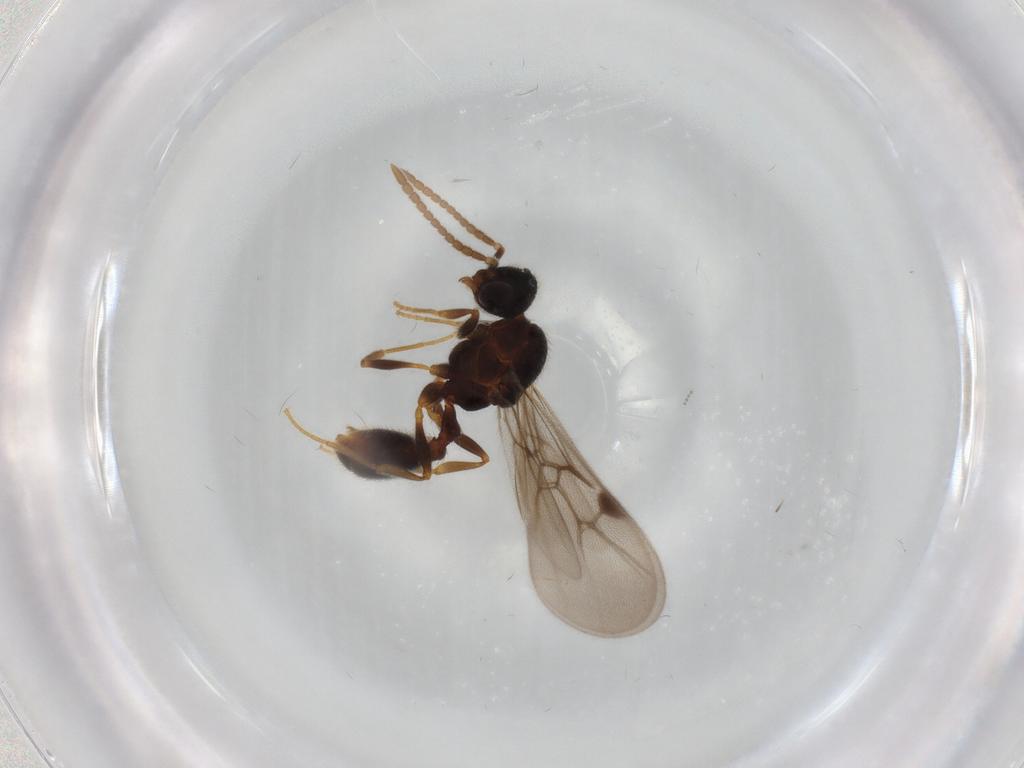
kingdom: Animalia
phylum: Arthropoda
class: Insecta
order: Hymenoptera
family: Formicidae
